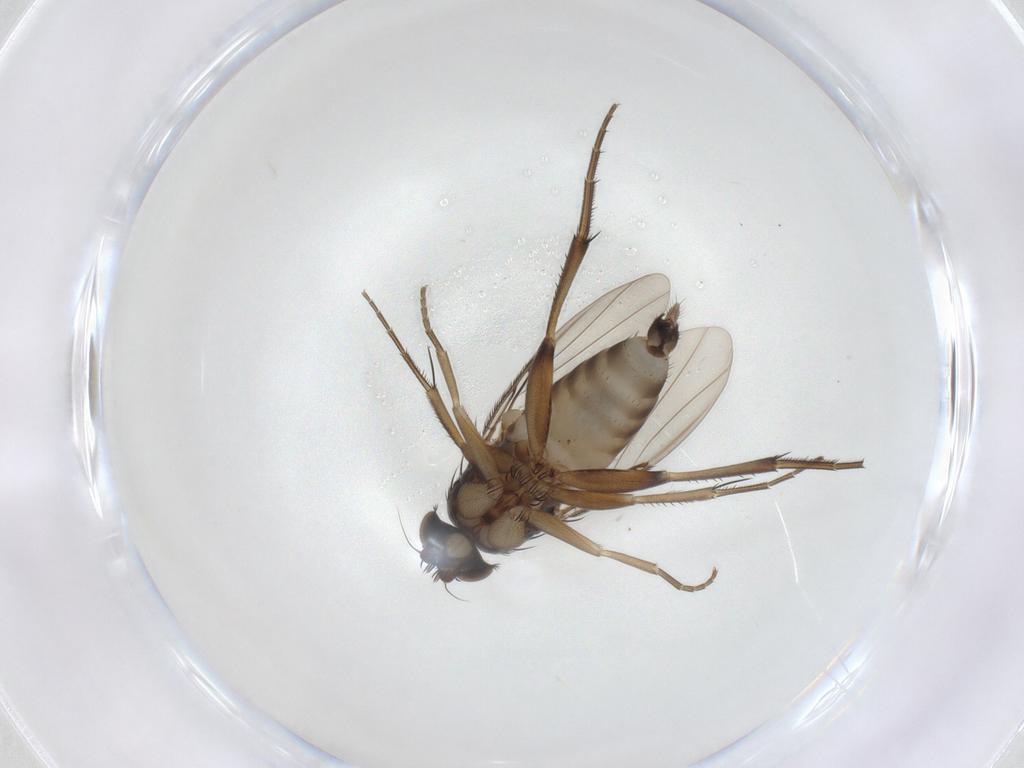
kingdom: Animalia
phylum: Arthropoda
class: Insecta
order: Diptera
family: Phoridae
